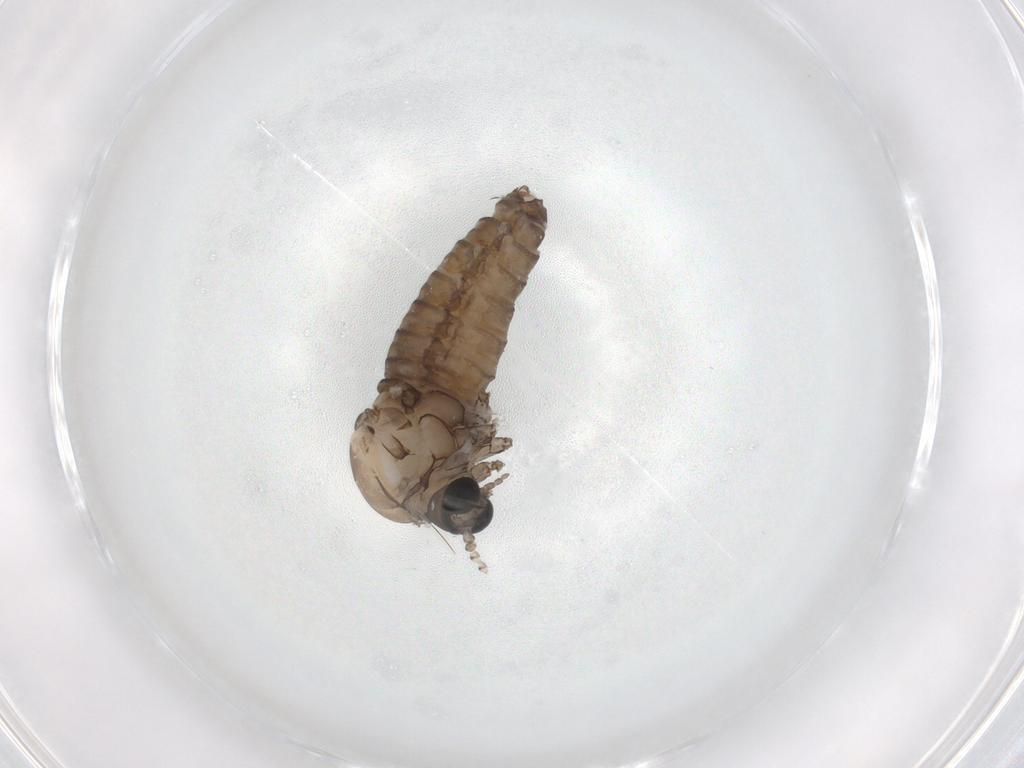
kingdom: Animalia
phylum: Arthropoda
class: Insecta
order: Diptera
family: Psychodidae
